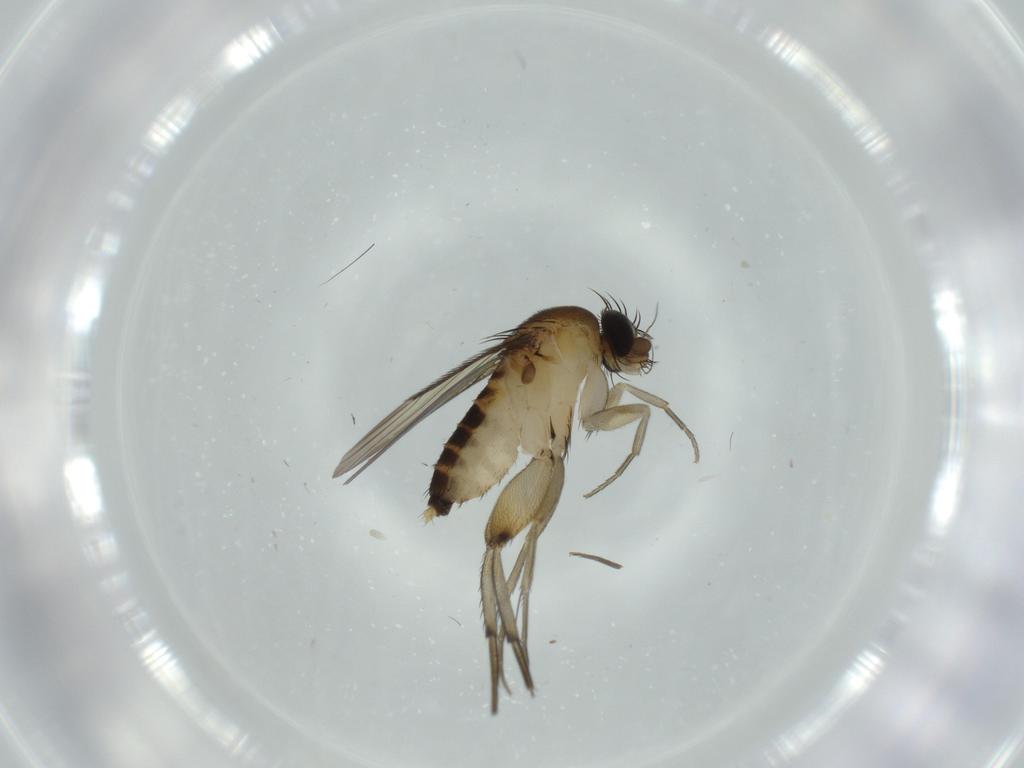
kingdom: Animalia
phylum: Arthropoda
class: Insecta
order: Diptera
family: Phoridae
